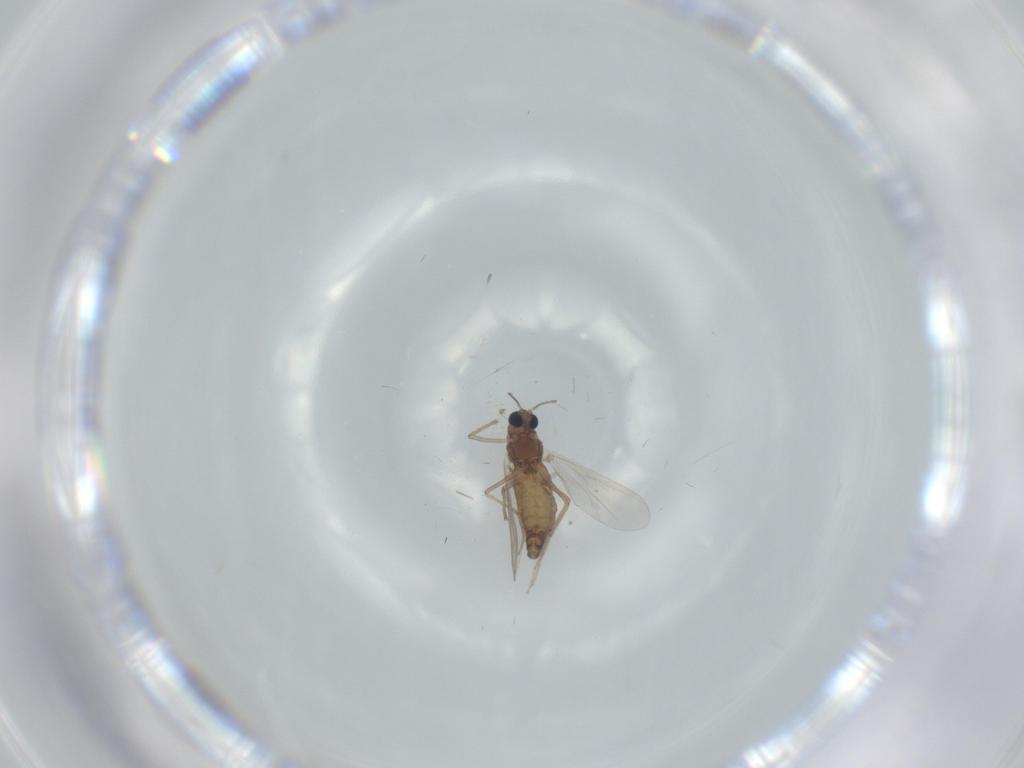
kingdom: Animalia
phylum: Arthropoda
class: Insecta
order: Diptera
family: Chironomidae
